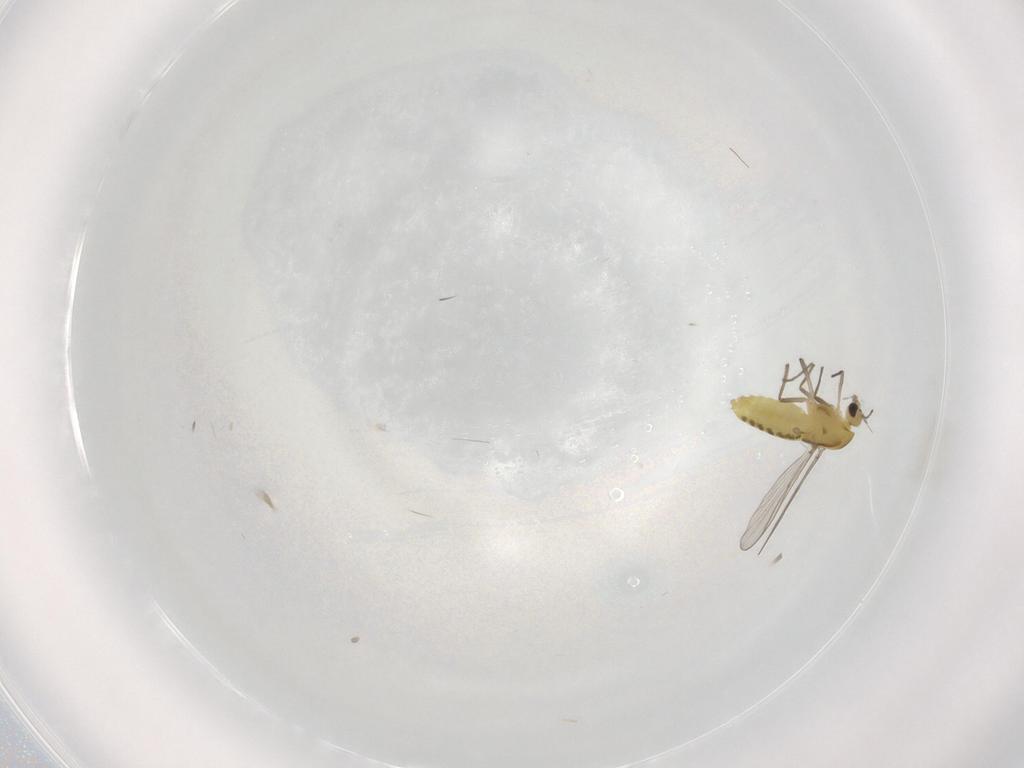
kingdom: Animalia
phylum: Arthropoda
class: Insecta
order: Diptera
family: Chironomidae
